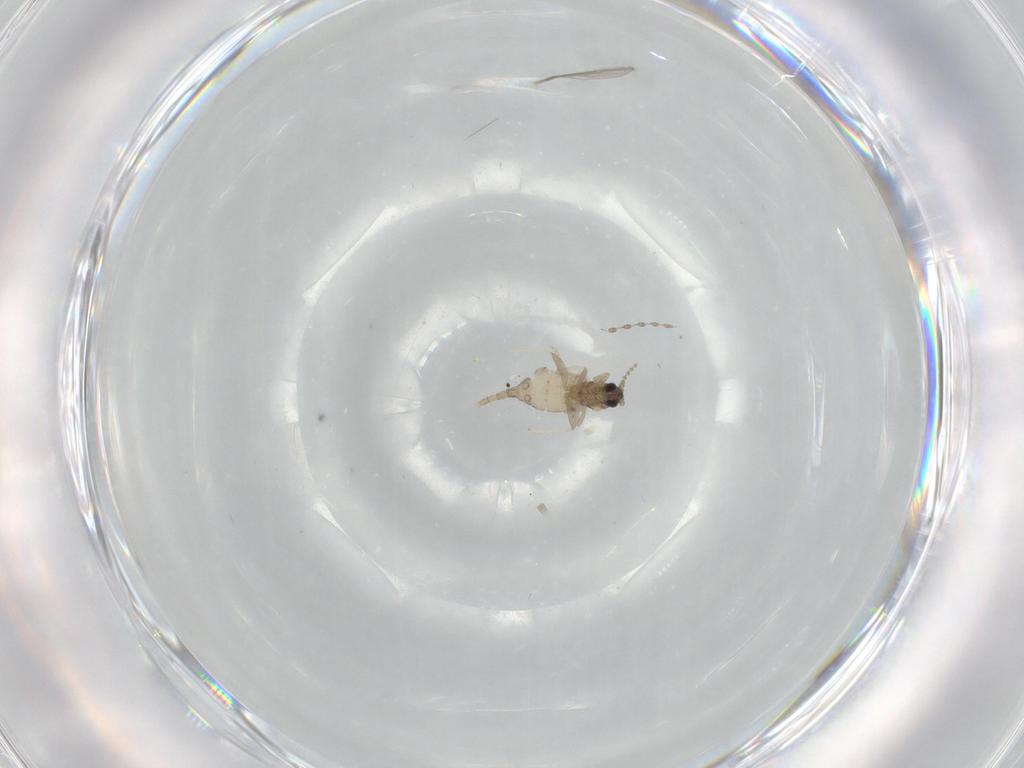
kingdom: Animalia
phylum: Arthropoda
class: Insecta
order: Diptera
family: Cecidomyiidae
